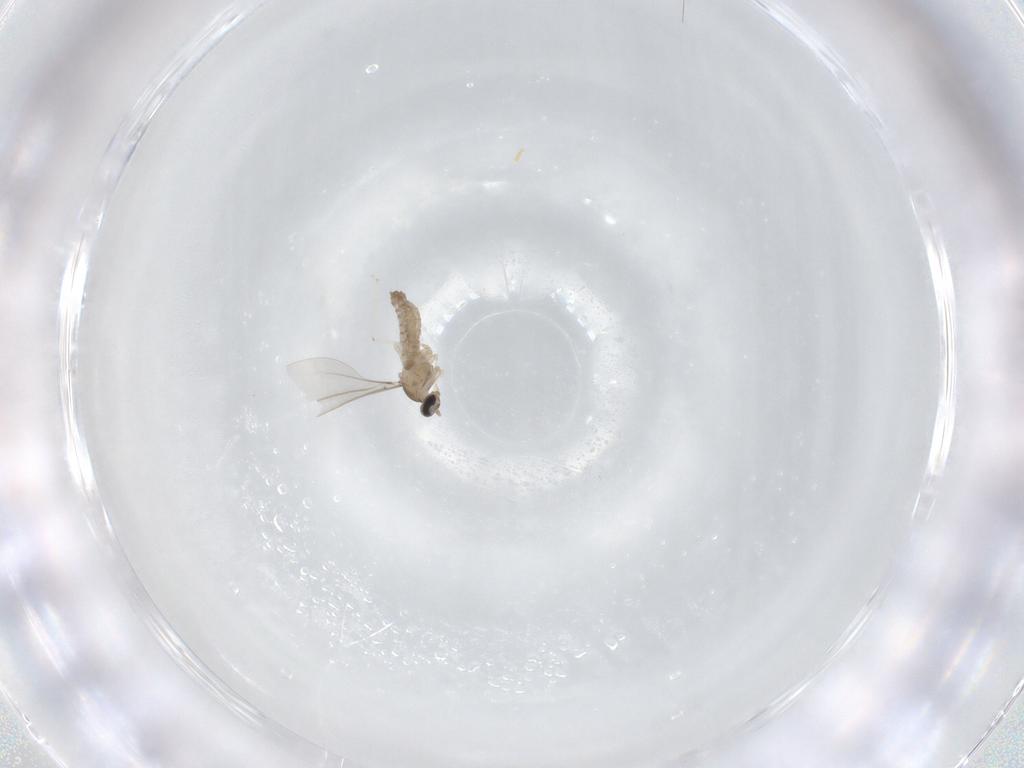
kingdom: Animalia
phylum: Arthropoda
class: Insecta
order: Diptera
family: Cecidomyiidae
